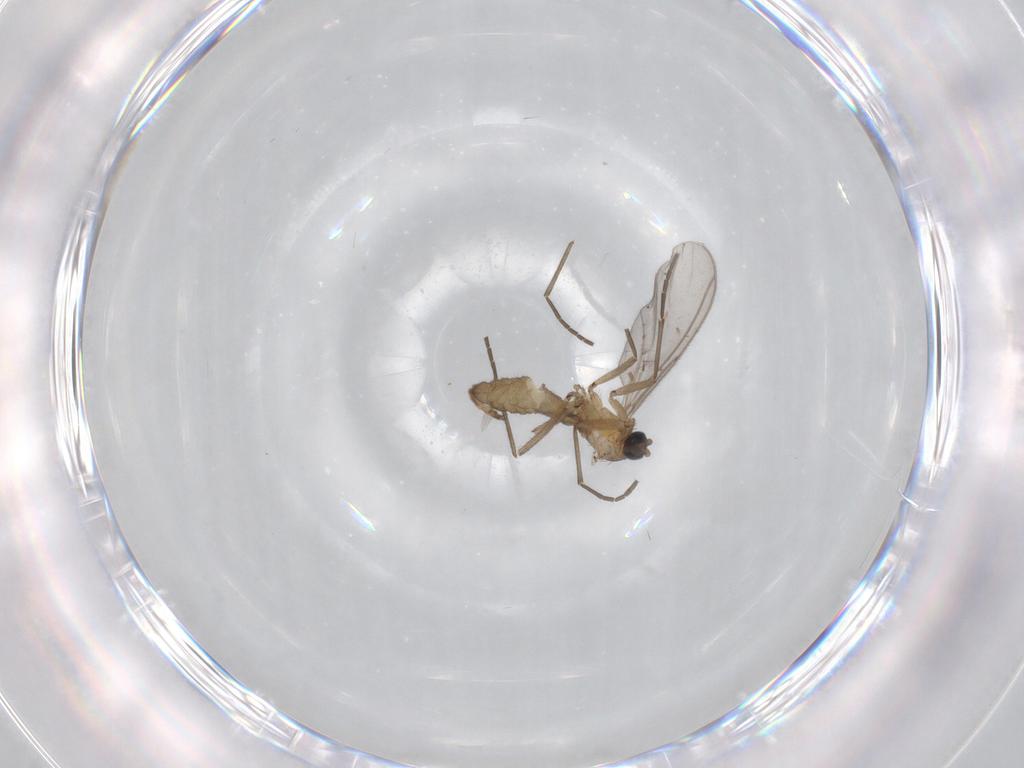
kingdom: Animalia
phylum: Arthropoda
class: Insecta
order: Diptera
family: Sciaridae
